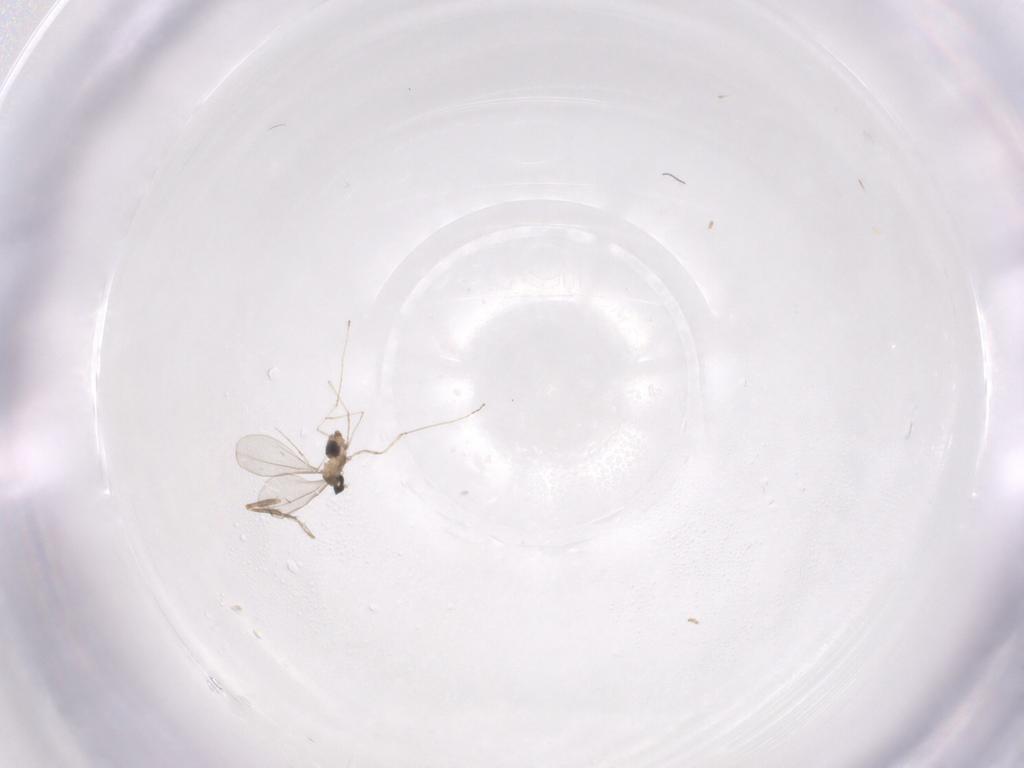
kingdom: Animalia
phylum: Arthropoda
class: Insecta
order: Diptera
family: Cecidomyiidae
